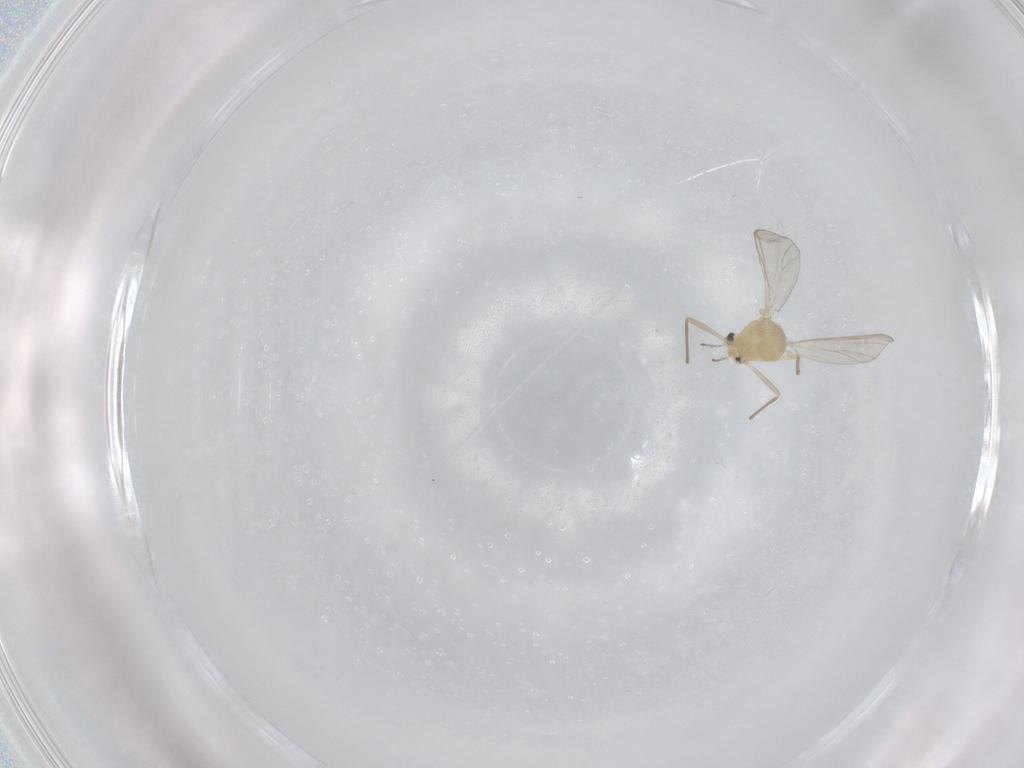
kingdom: Animalia
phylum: Arthropoda
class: Insecta
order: Diptera
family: Chironomidae
